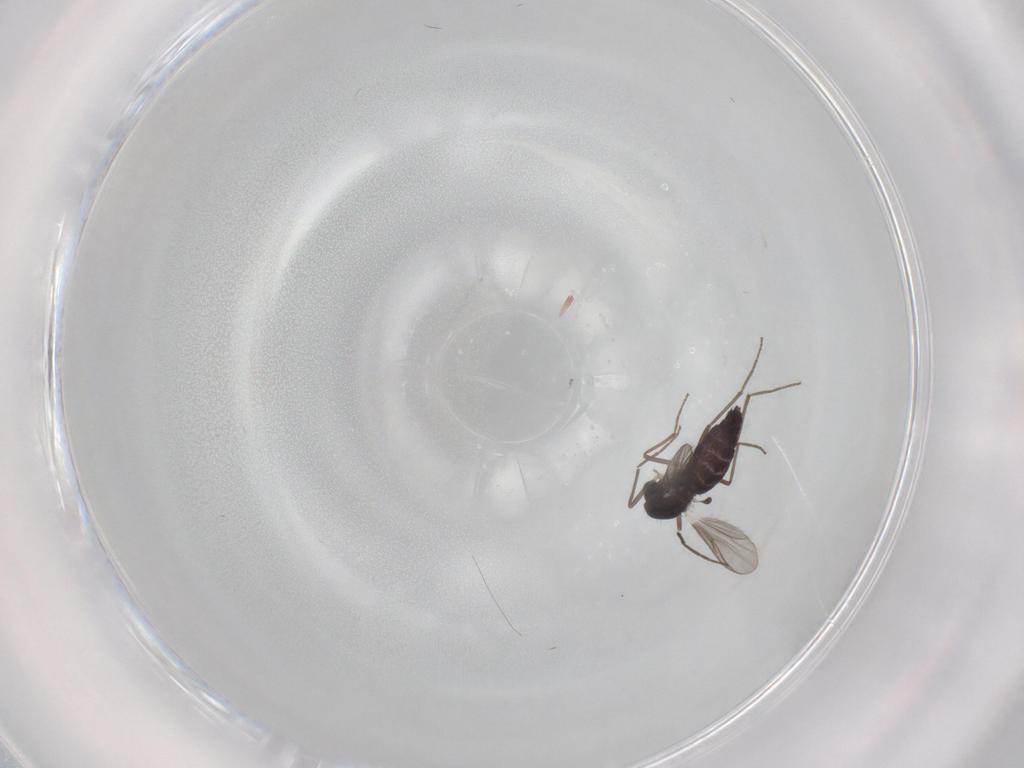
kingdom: Animalia
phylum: Arthropoda
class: Insecta
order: Diptera
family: Chironomidae
